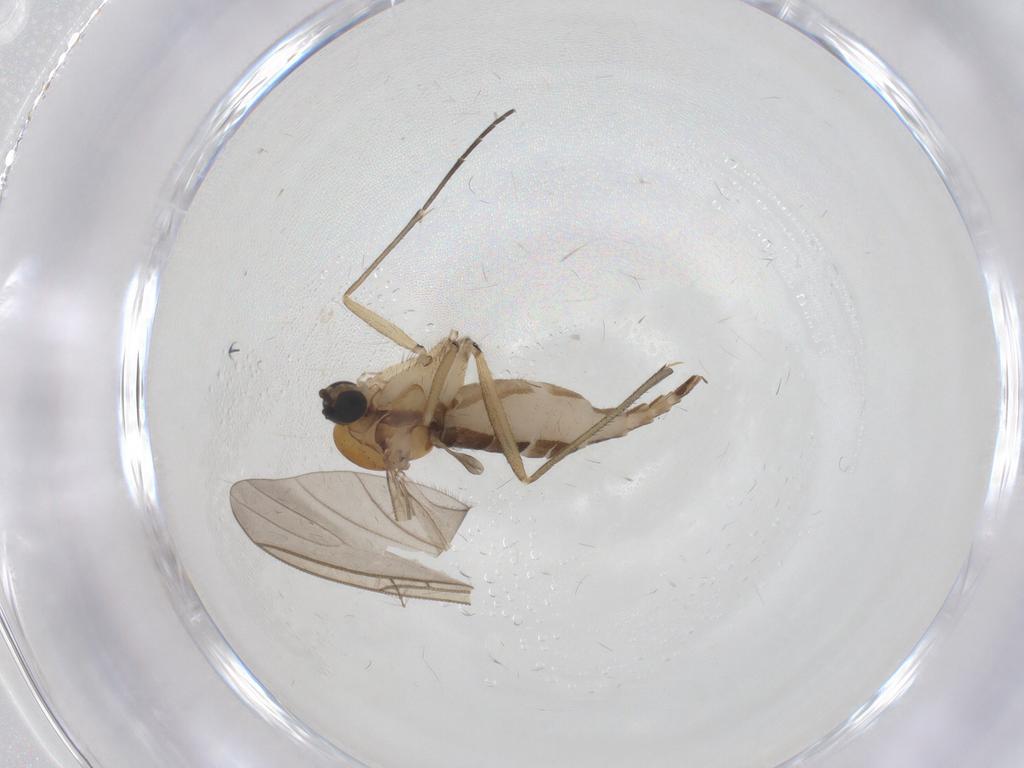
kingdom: Animalia
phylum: Arthropoda
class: Insecta
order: Diptera
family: Sciaridae
